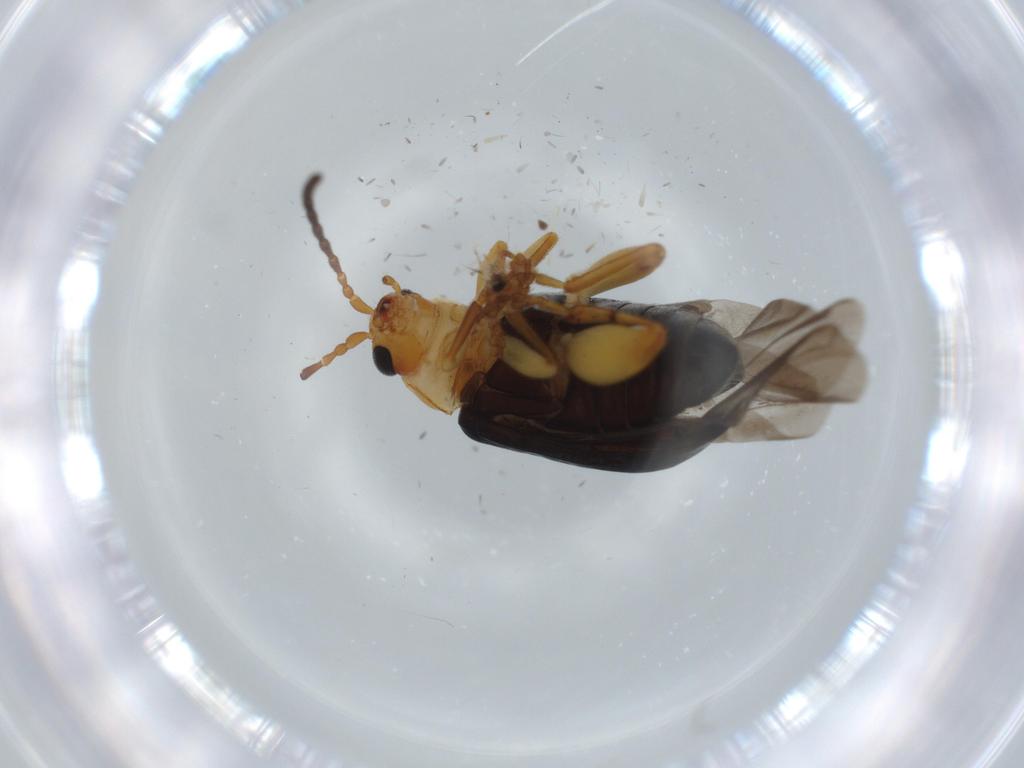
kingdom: Animalia
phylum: Arthropoda
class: Insecta
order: Coleoptera
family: Chrysomelidae
